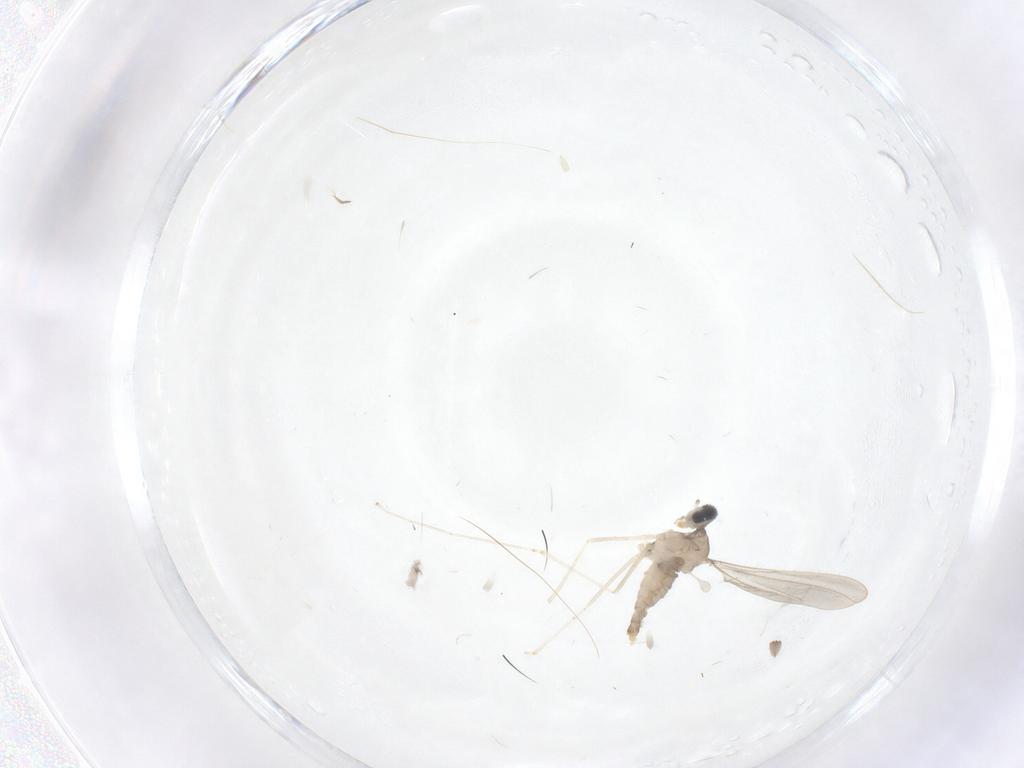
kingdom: Animalia
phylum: Arthropoda
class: Insecta
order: Diptera
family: Cecidomyiidae
